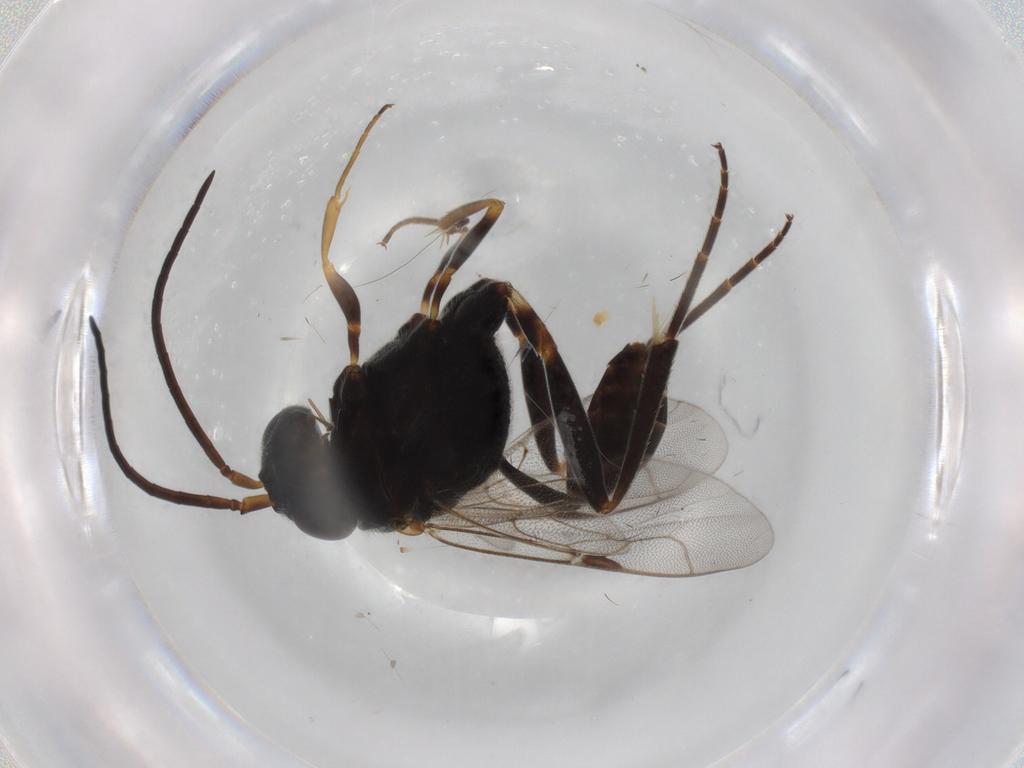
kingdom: Animalia
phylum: Arthropoda
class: Insecta
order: Hymenoptera
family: Evaniidae
